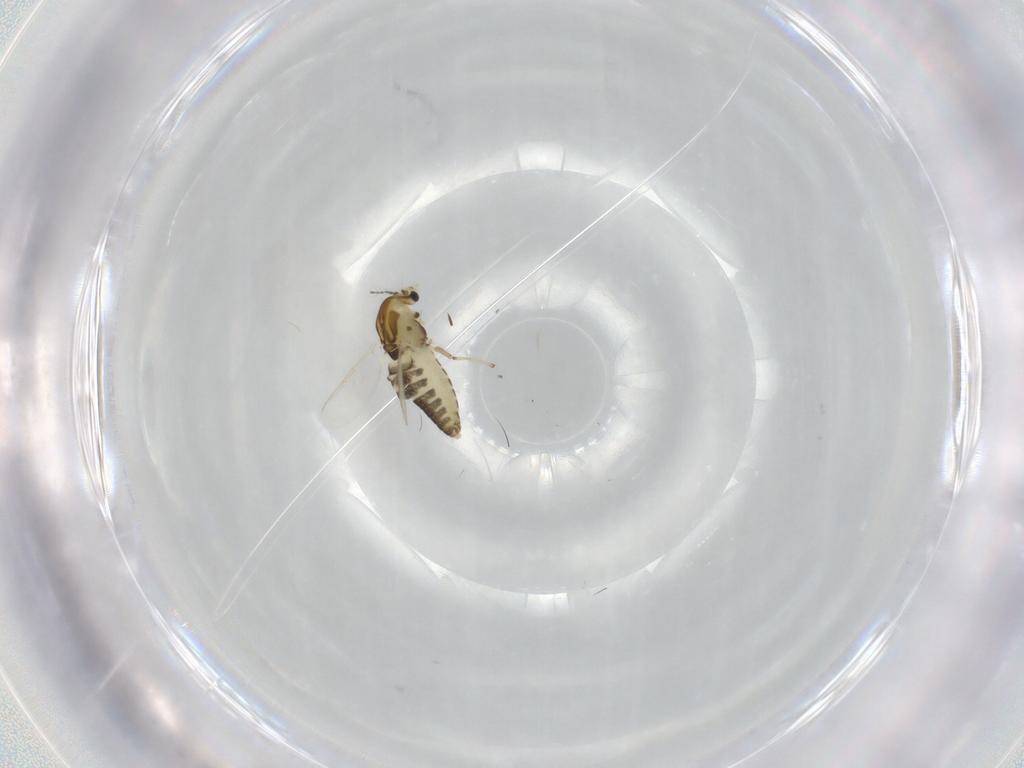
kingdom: Animalia
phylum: Arthropoda
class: Insecta
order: Diptera
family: Chironomidae
